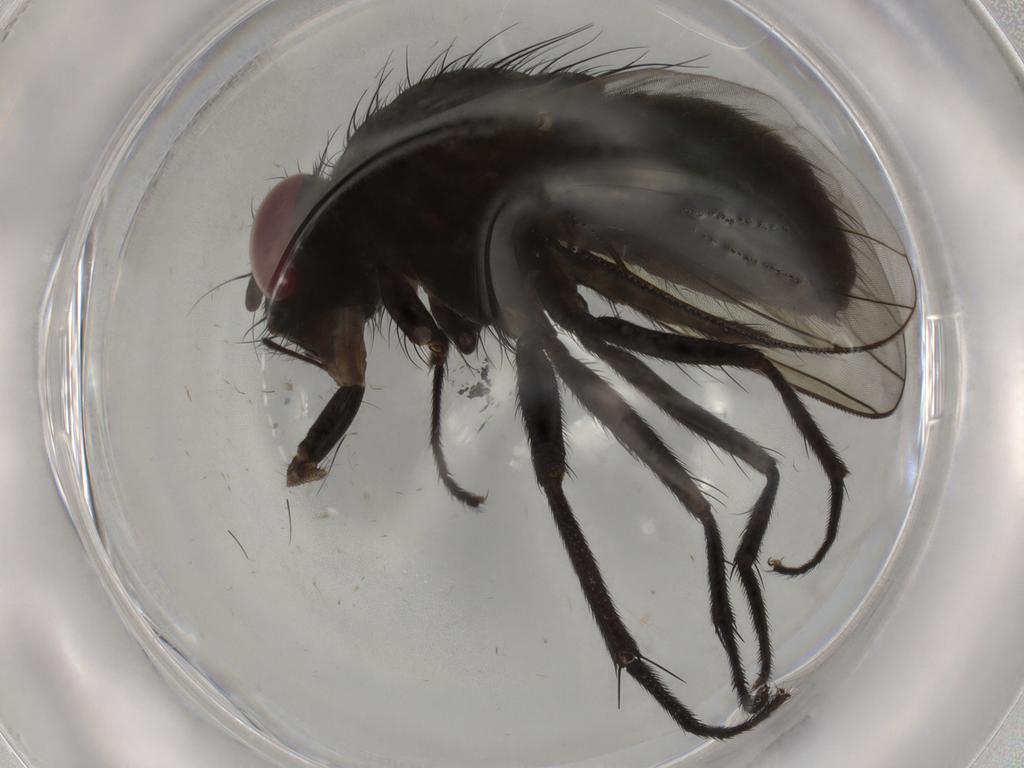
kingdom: Animalia
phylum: Arthropoda
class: Insecta
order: Diptera
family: Muscidae
